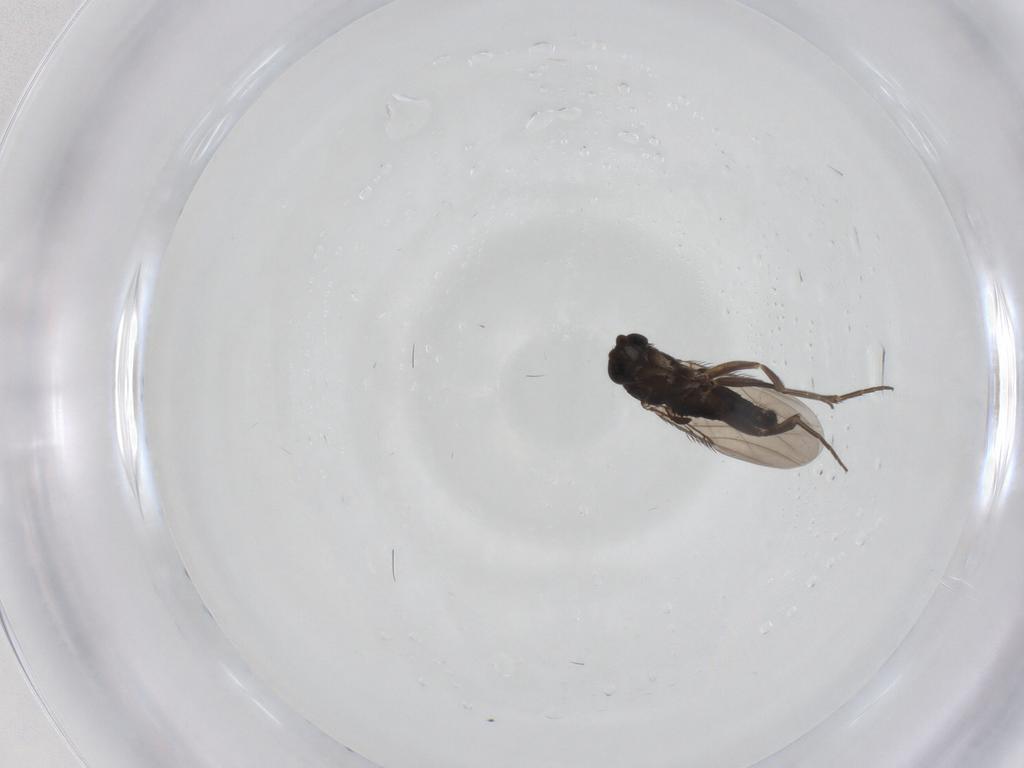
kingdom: Animalia
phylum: Arthropoda
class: Insecta
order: Diptera
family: Phoridae
